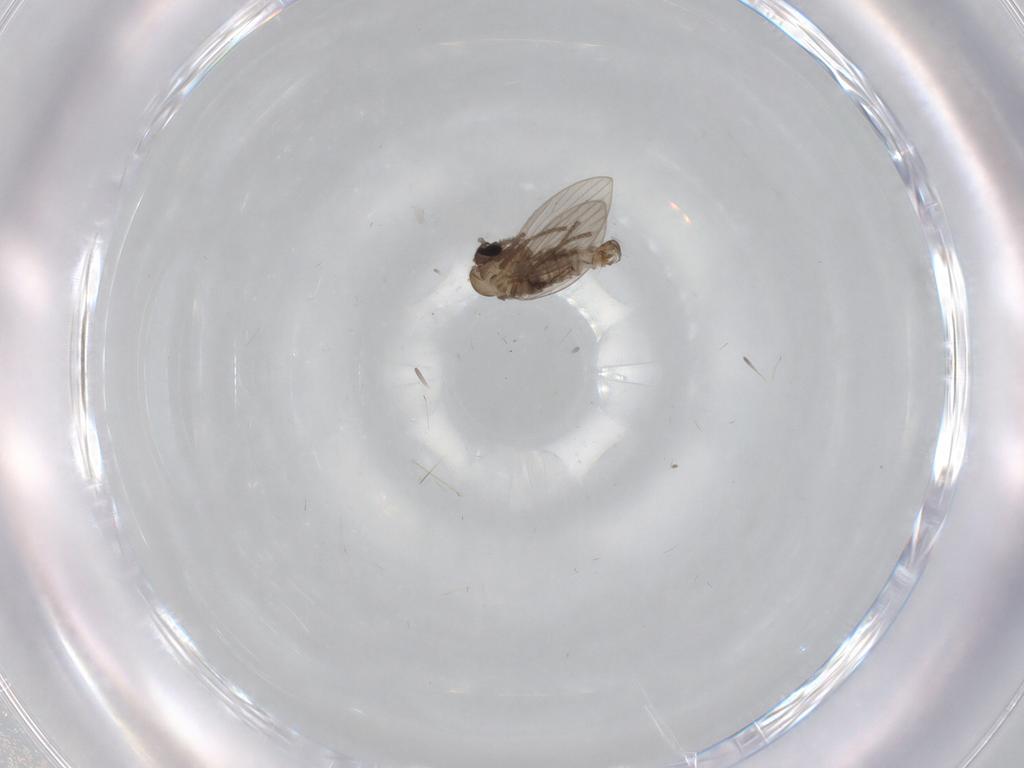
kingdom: Animalia
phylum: Arthropoda
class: Insecta
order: Diptera
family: Psychodidae
